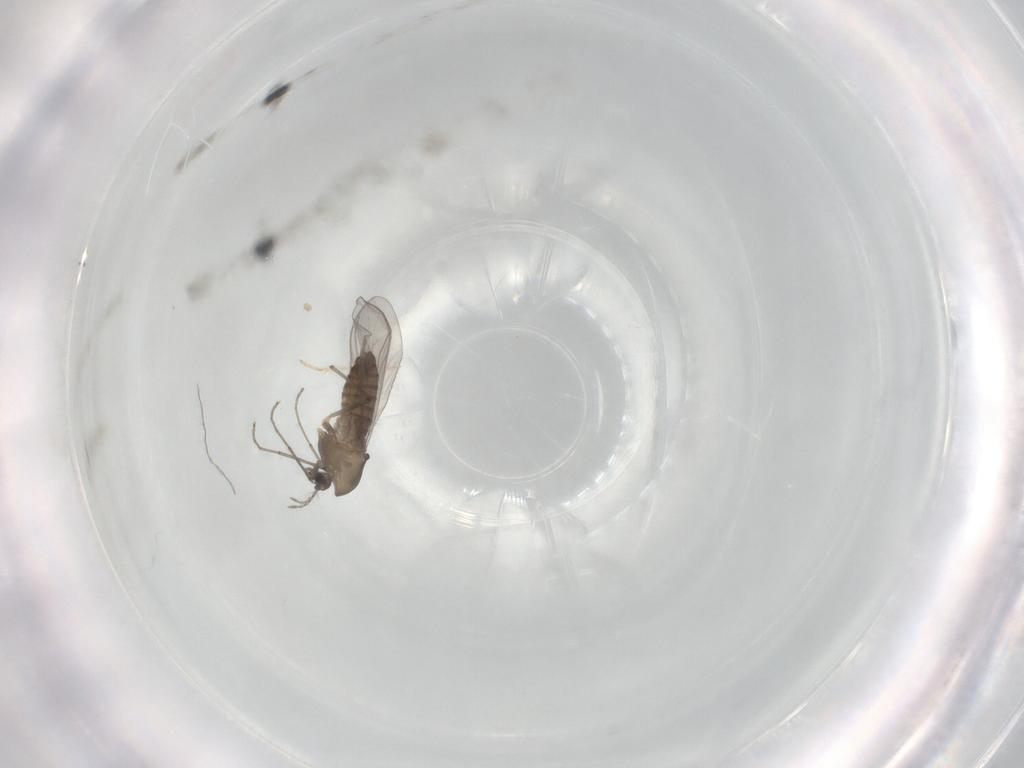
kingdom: Animalia
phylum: Arthropoda
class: Insecta
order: Diptera
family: Chironomidae
